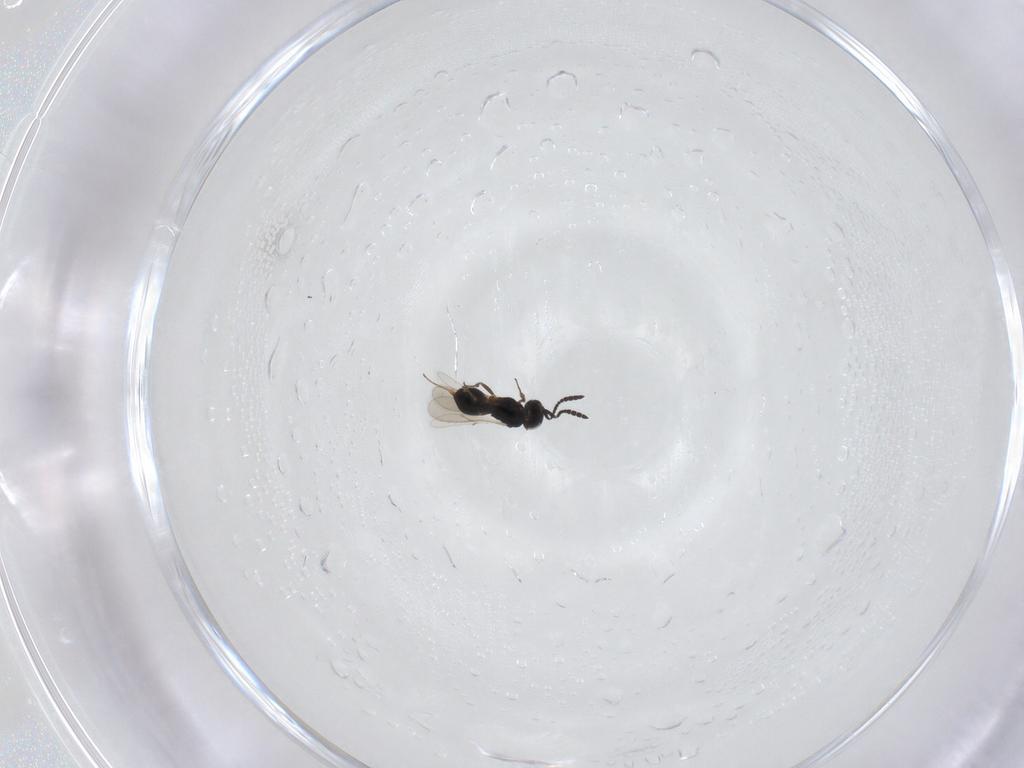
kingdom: Animalia
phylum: Arthropoda
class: Insecta
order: Hymenoptera
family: Scelionidae
